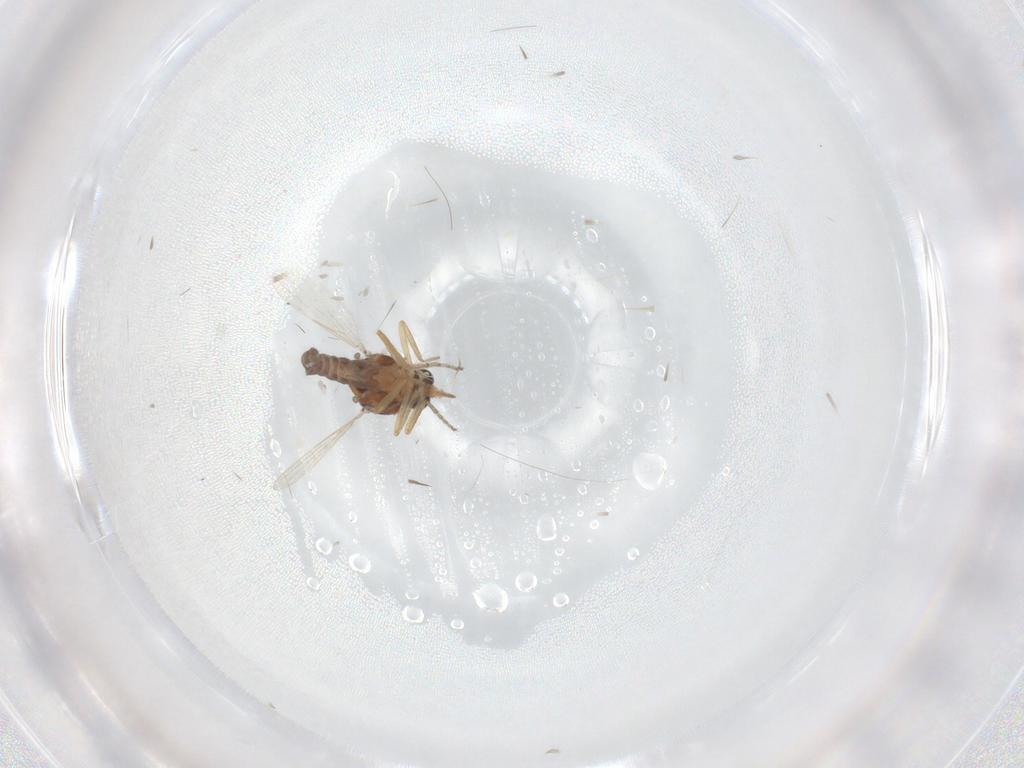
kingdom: Animalia
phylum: Arthropoda
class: Insecta
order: Diptera
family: Ceratopogonidae
